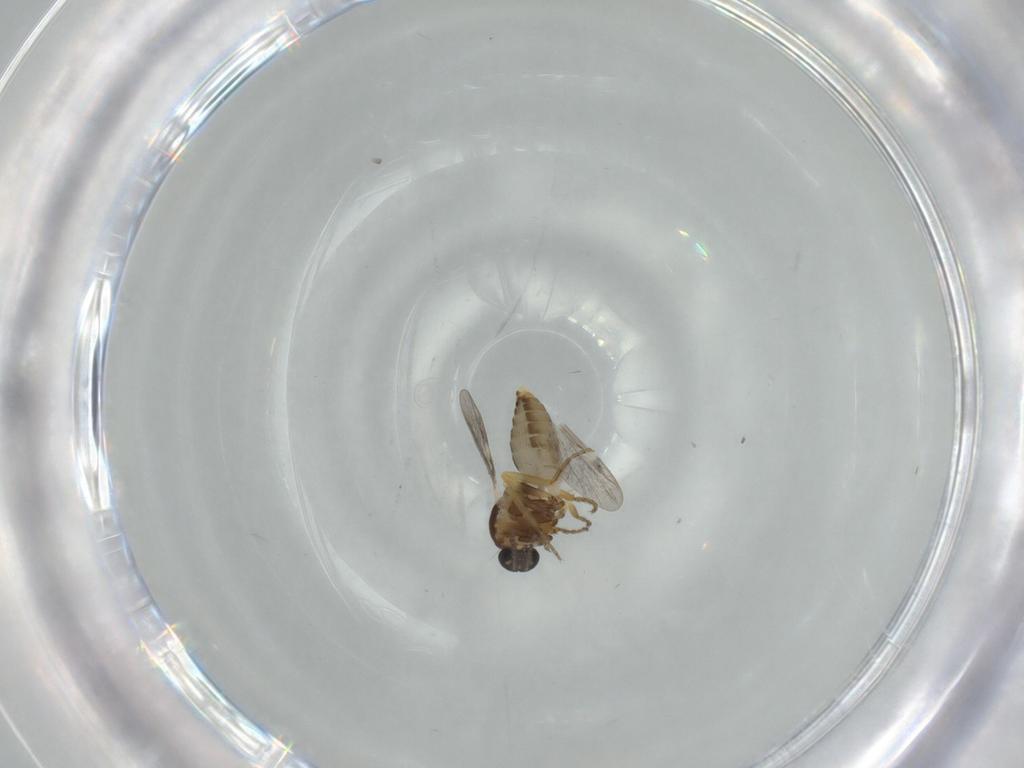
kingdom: Animalia
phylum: Arthropoda
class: Insecta
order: Diptera
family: Ceratopogonidae
